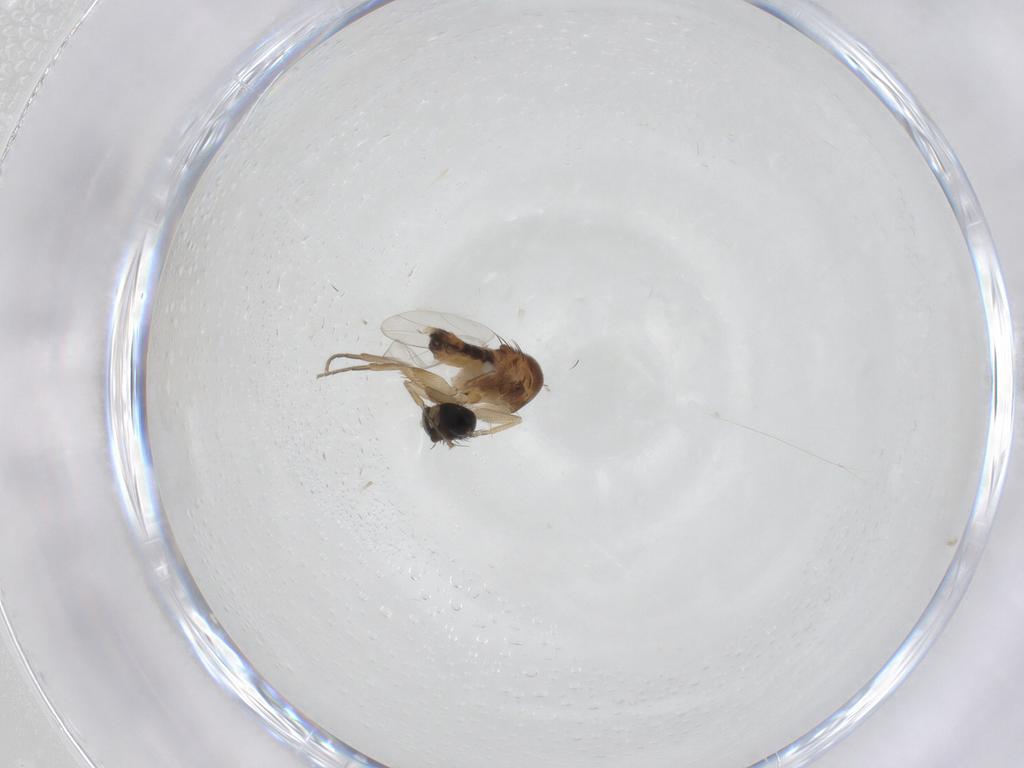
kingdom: Animalia
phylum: Arthropoda
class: Insecta
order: Diptera
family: Phoridae
